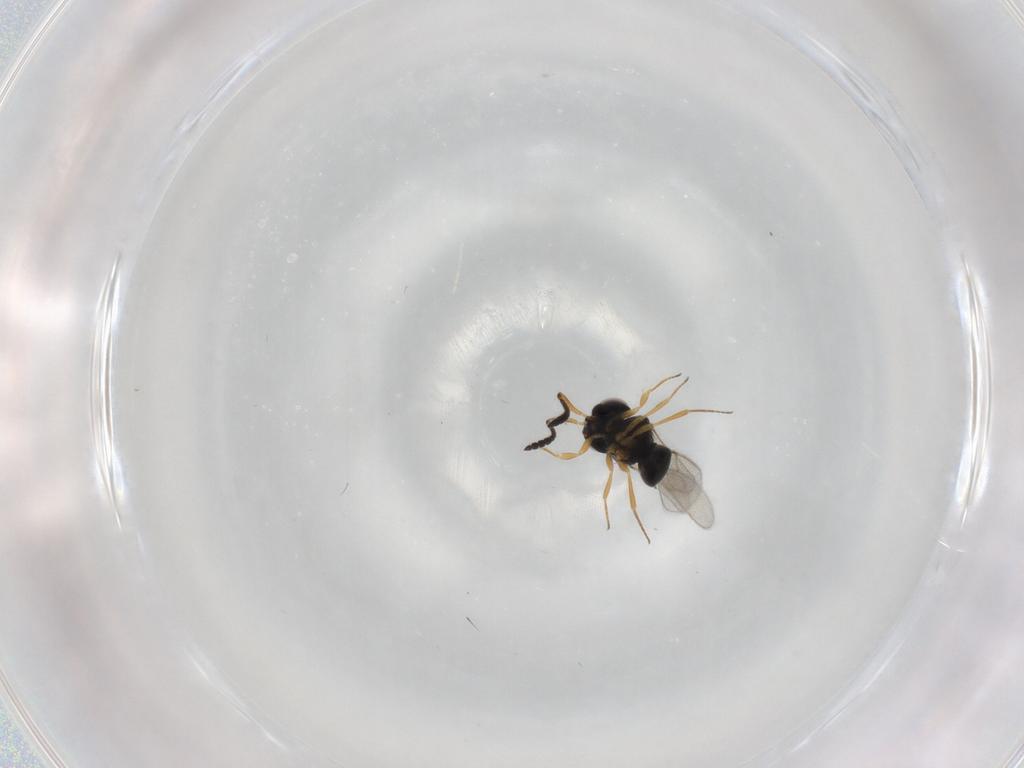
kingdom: Animalia
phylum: Arthropoda
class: Insecta
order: Hymenoptera
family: Scelionidae
